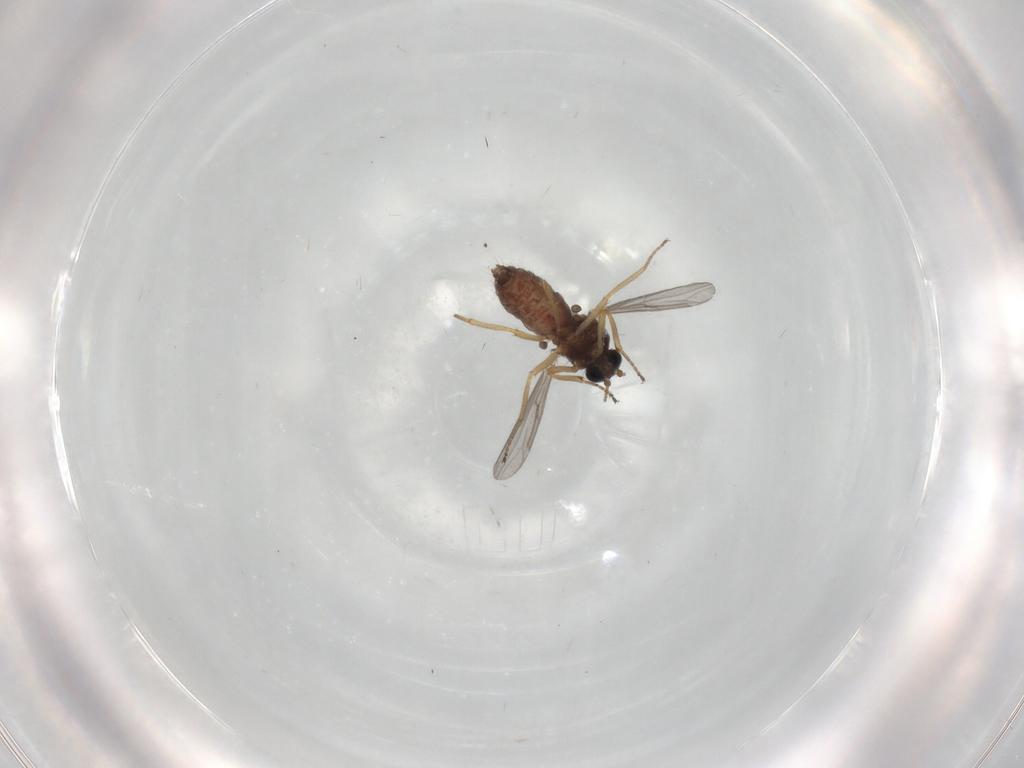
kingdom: Animalia
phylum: Arthropoda
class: Insecta
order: Diptera
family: Ceratopogonidae
